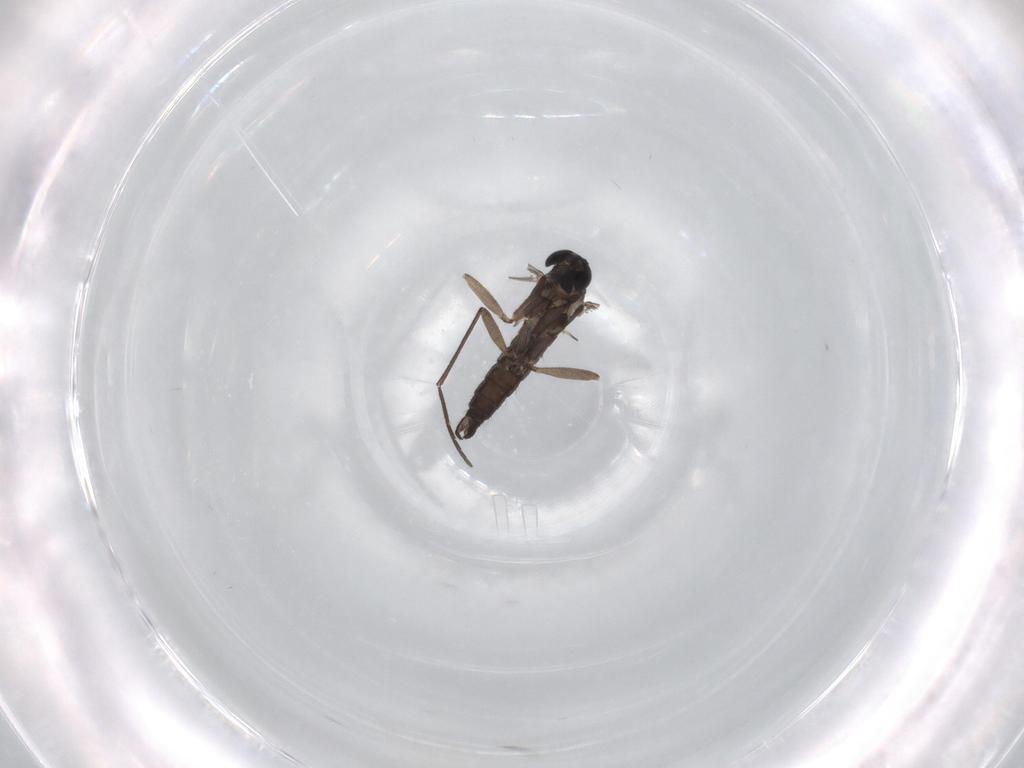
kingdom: Animalia
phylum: Arthropoda
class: Insecta
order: Diptera
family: Sciaridae
